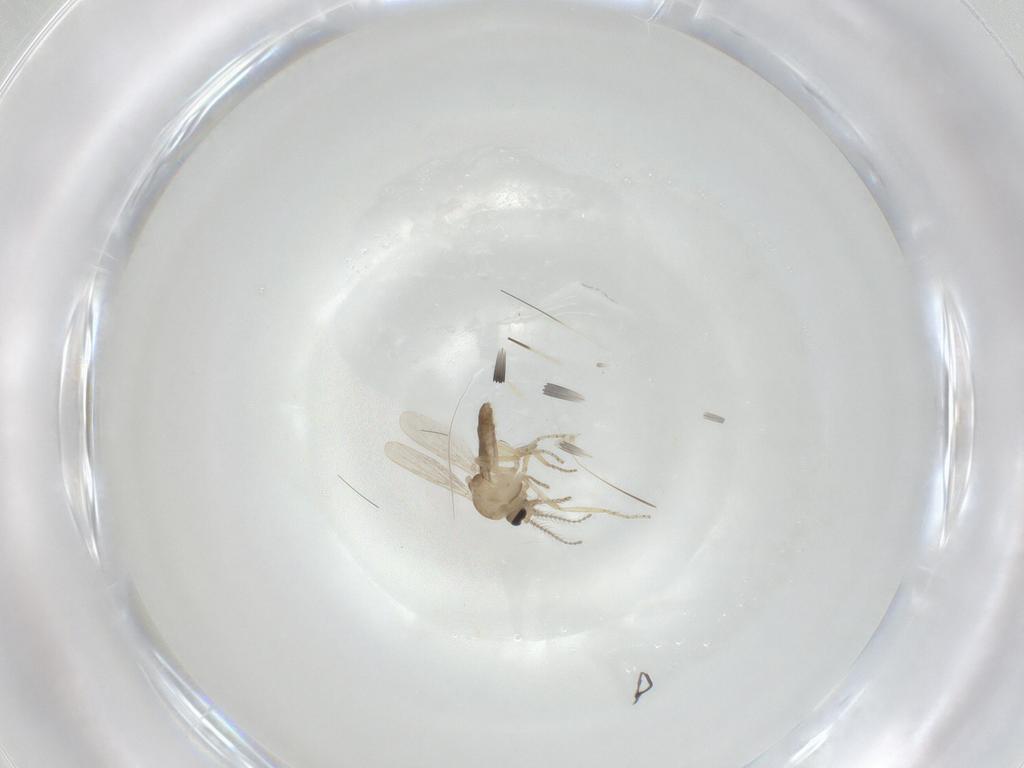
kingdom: Animalia
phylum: Arthropoda
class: Insecta
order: Diptera
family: Ceratopogonidae
